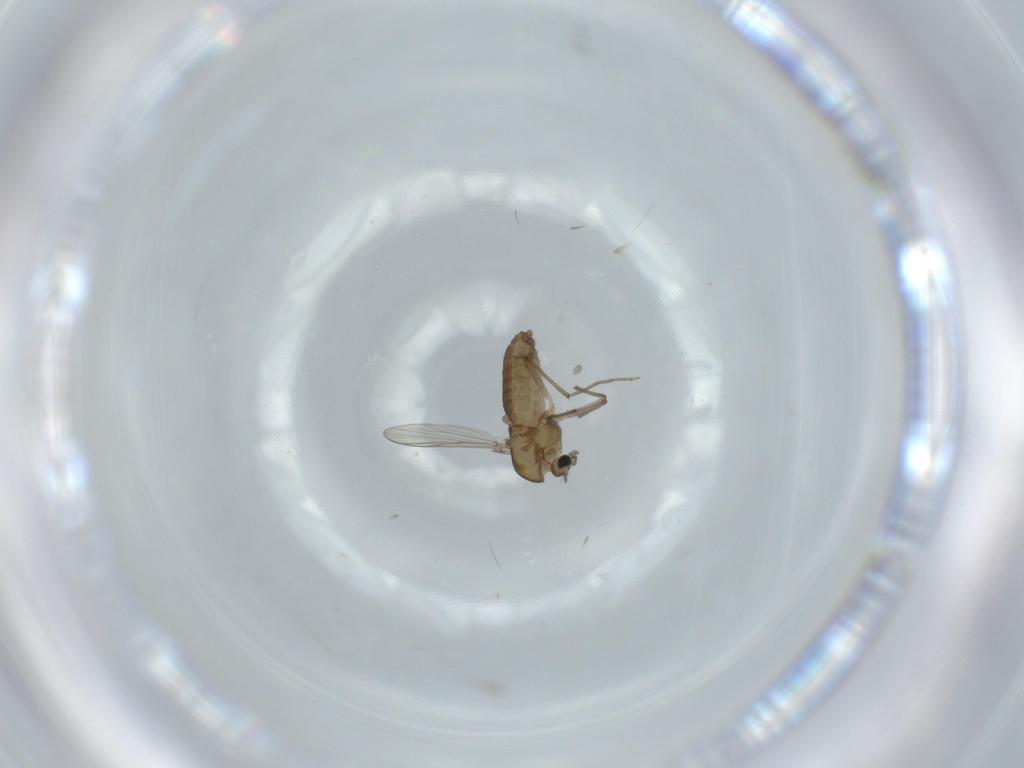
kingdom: Animalia
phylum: Arthropoda
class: Insecta
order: Diptera
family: Chironomidae
